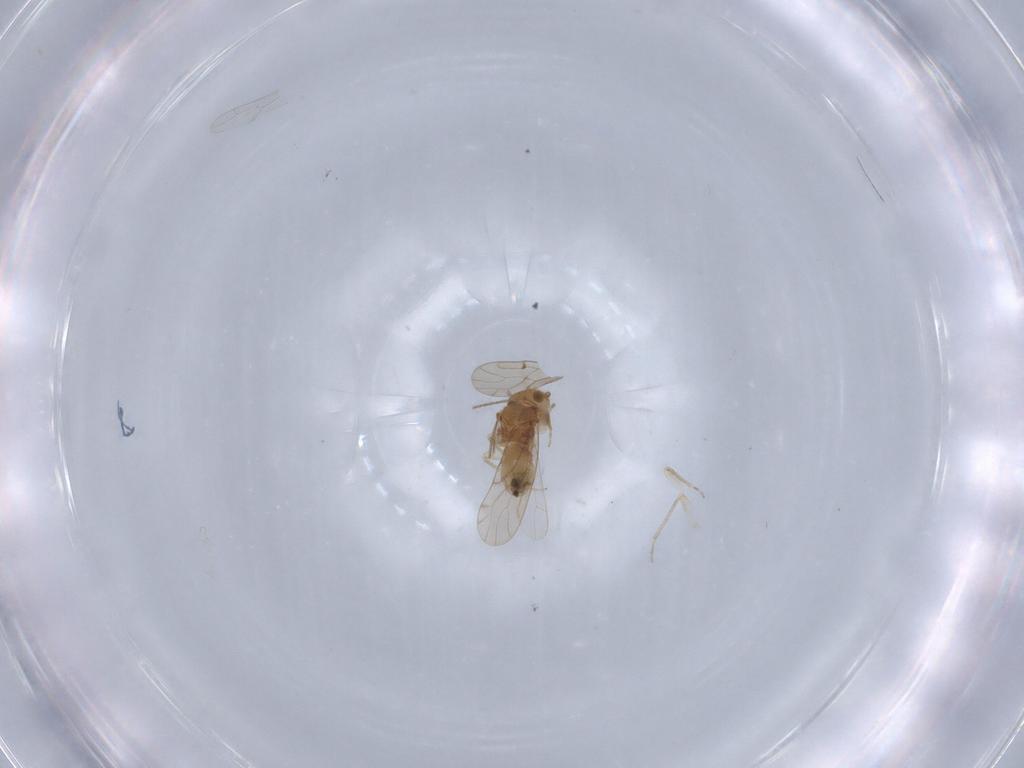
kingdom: Animalia
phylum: Arthropoda
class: Insecta
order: Psocodea
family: Ectopsocidae
